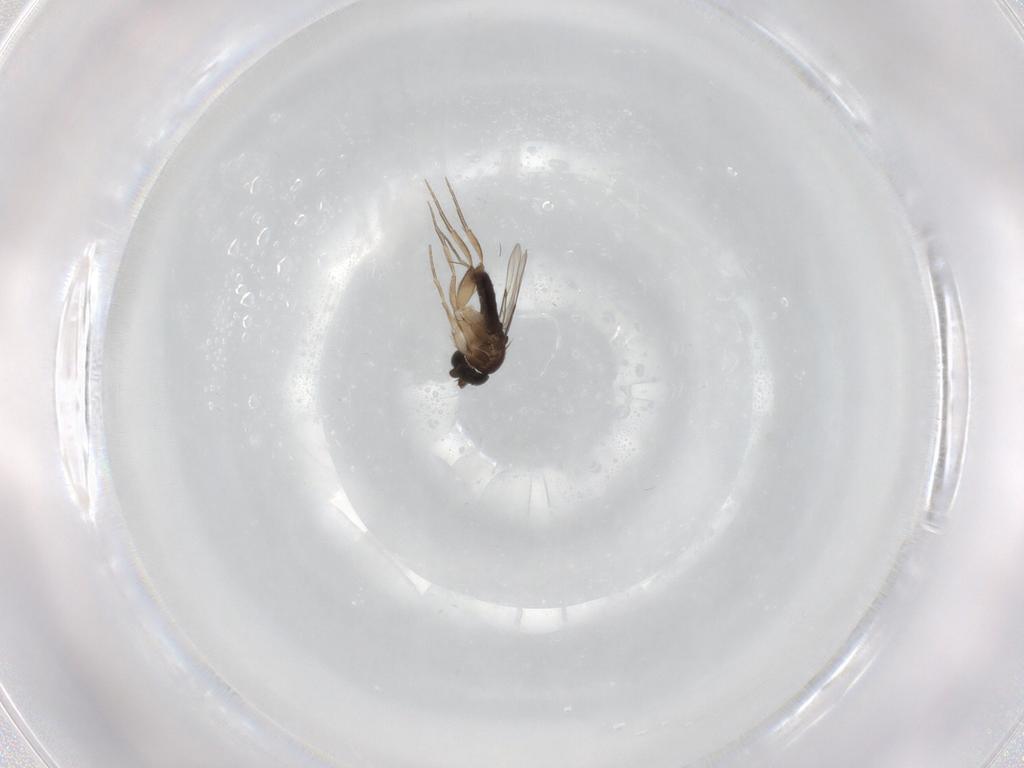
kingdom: Animalia
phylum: Arthropoda
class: Insecta
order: Diptera
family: Phoridae
